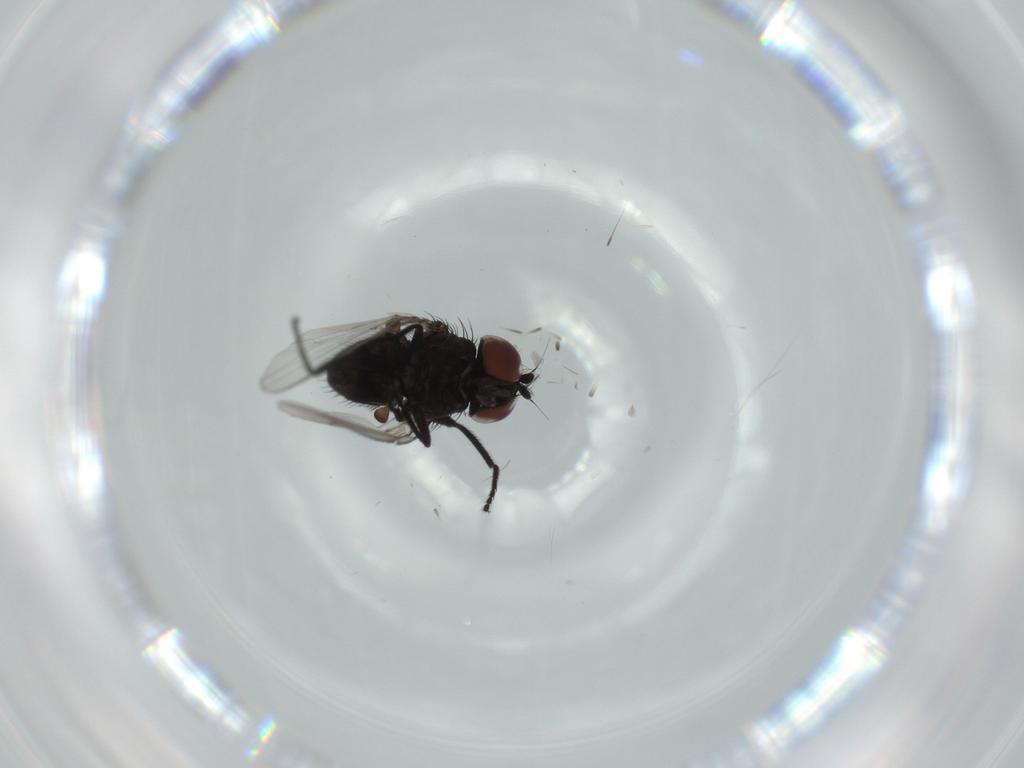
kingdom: Animalia
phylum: Arthropoda
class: Insecta
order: Diptera
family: Milichiidae
